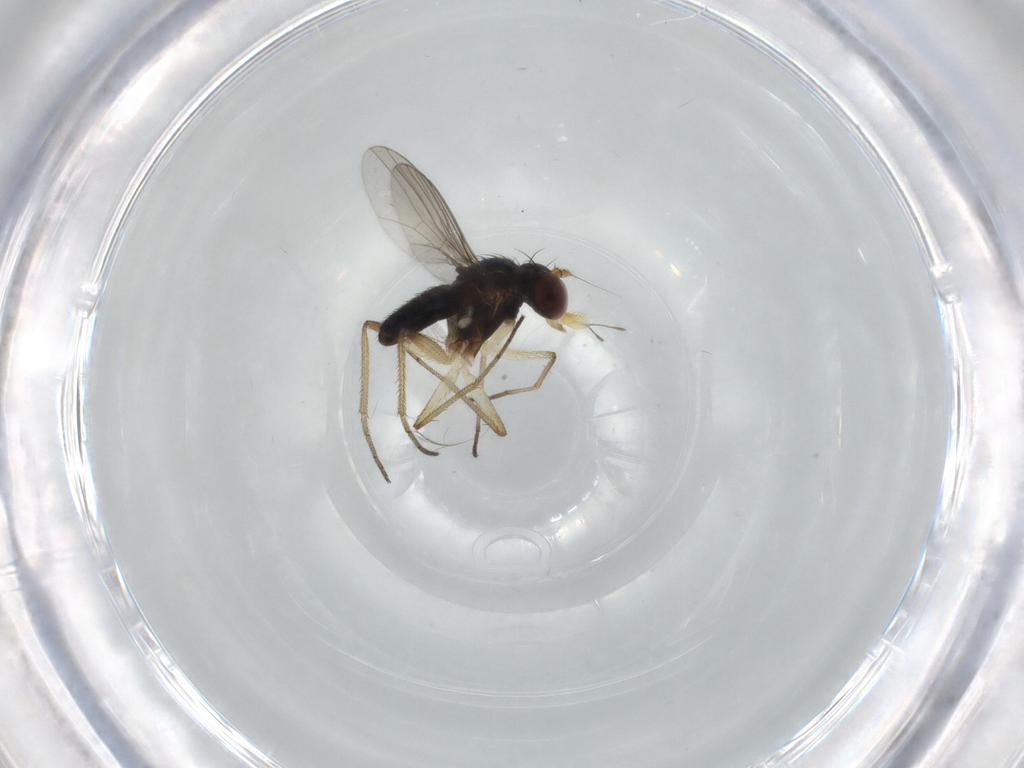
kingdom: Animalia
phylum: Arthropoda
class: Insecta
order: Diptera
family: Dolichopodidae
